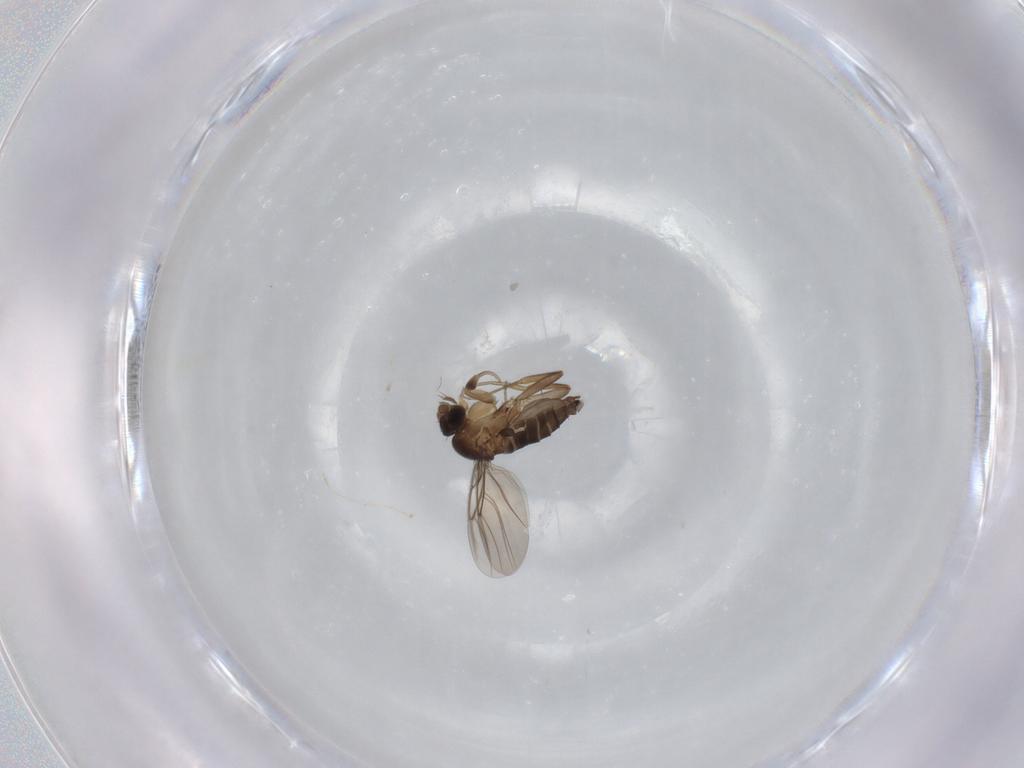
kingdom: Animalia
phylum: Arthropoda
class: Insecta
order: Diptera
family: Phoridae
